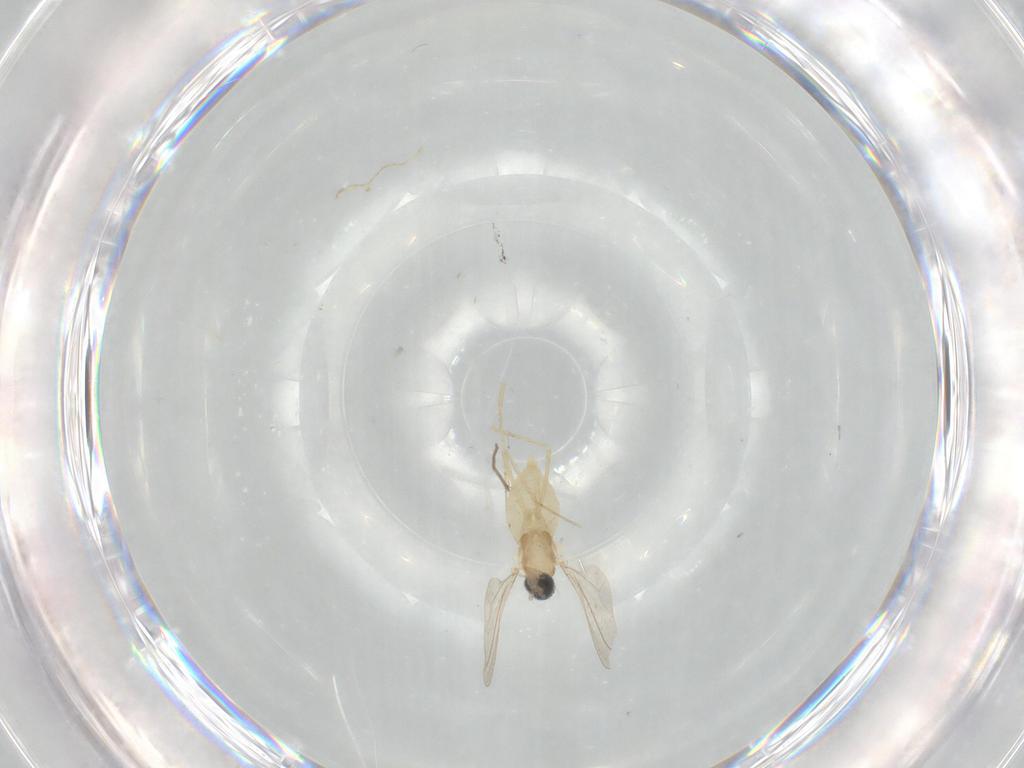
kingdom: Animalia
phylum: Arthropoda
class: Insecta
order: Diptera
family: Cecidomyiidae
